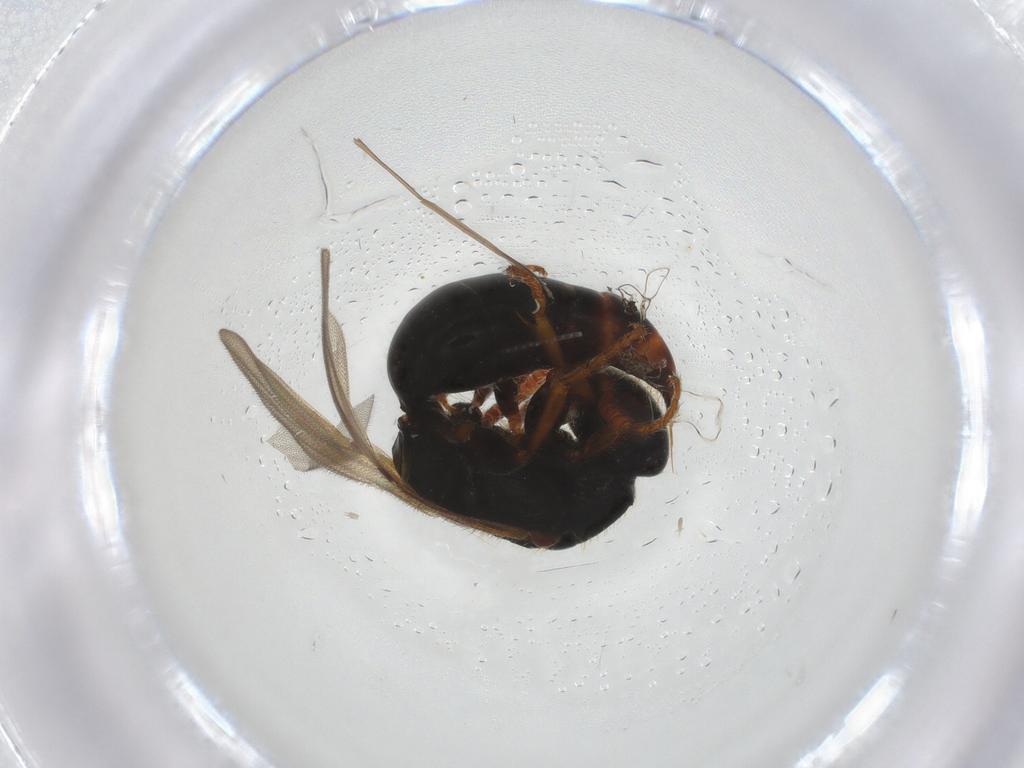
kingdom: Animalia
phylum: Arthropoda
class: Insecta
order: Hymenoptera
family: Bethylidae
